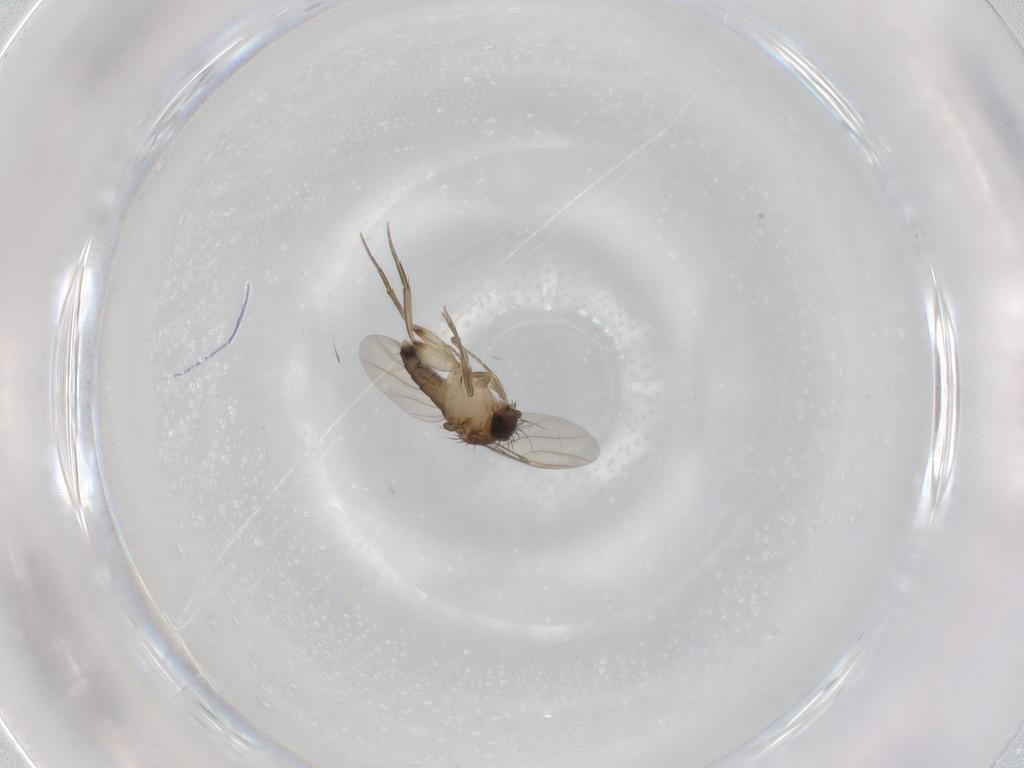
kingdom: Animalia
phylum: Arthropoda
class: Insecta
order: Diptera
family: Phoridae
